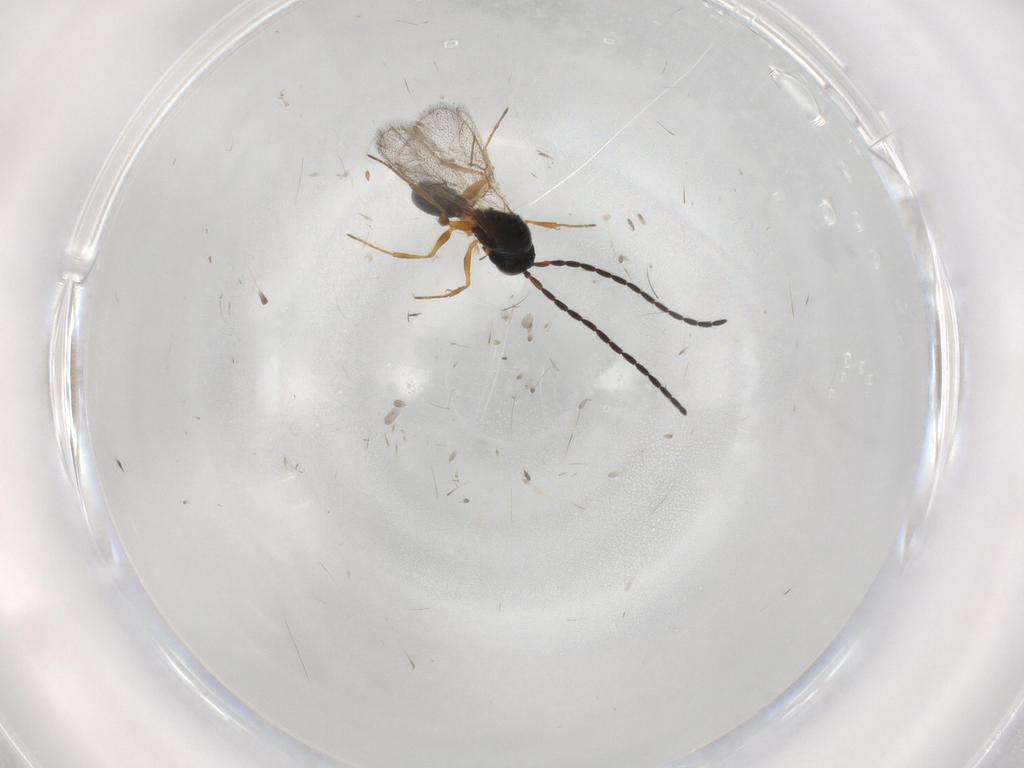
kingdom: Animalia
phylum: Arthropoda
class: Insecta
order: Hymenoptera
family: Figitidae
